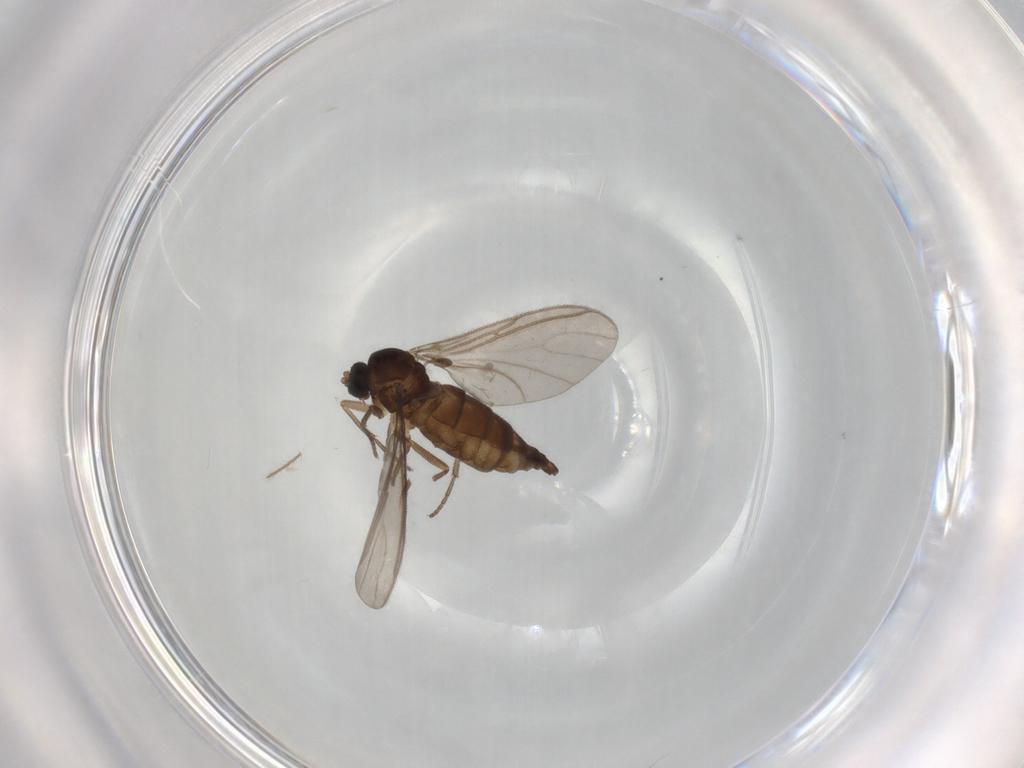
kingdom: Animalia
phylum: Arthropoda
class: Insecta
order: Diptera
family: Sciaridae
